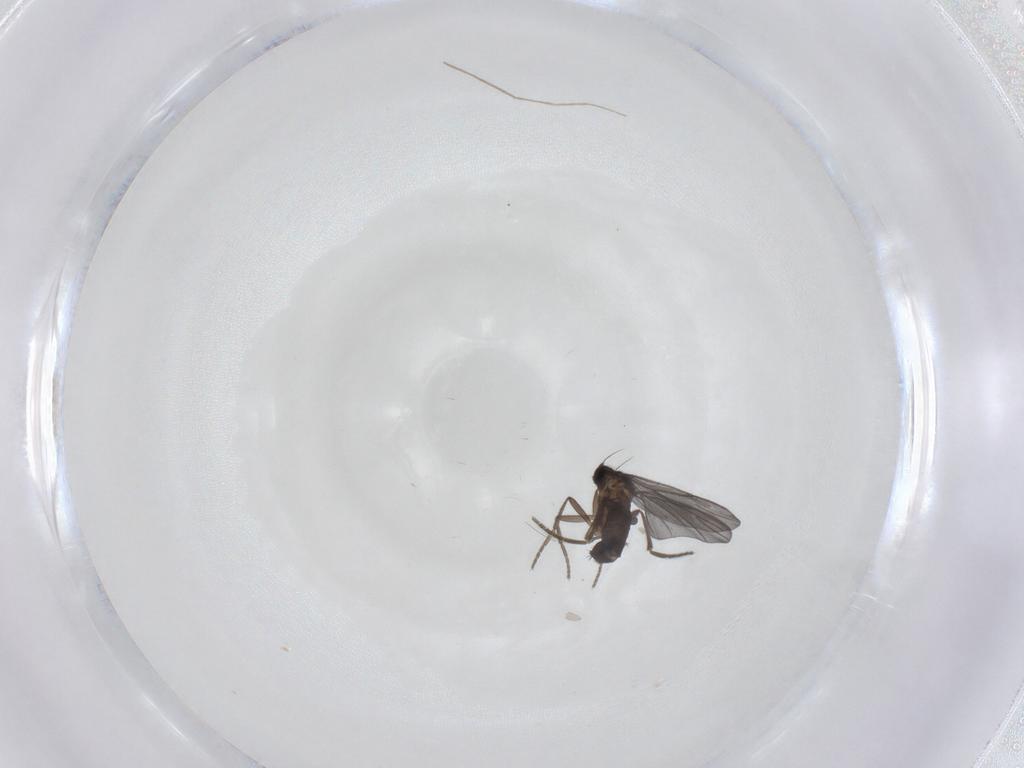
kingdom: Animalia
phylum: Arthropoda
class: Insecta
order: Diptera
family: Phoridae
